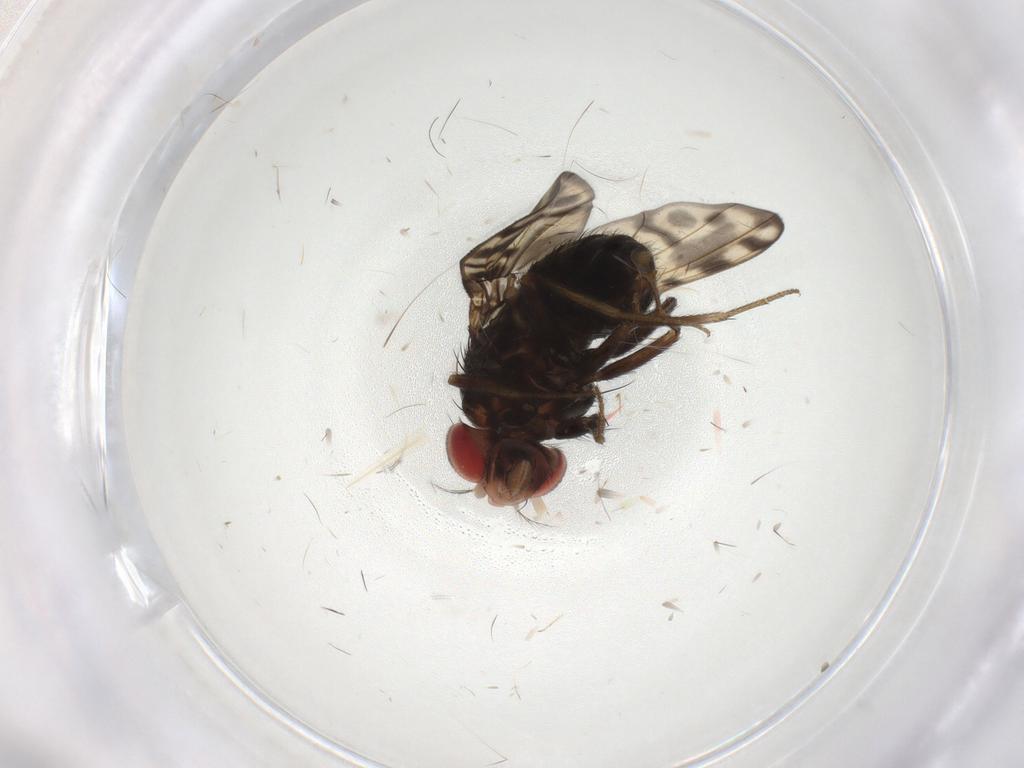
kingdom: Animalia
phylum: Arthropoda
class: Insecta
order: Diptera
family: Drosophilidae
